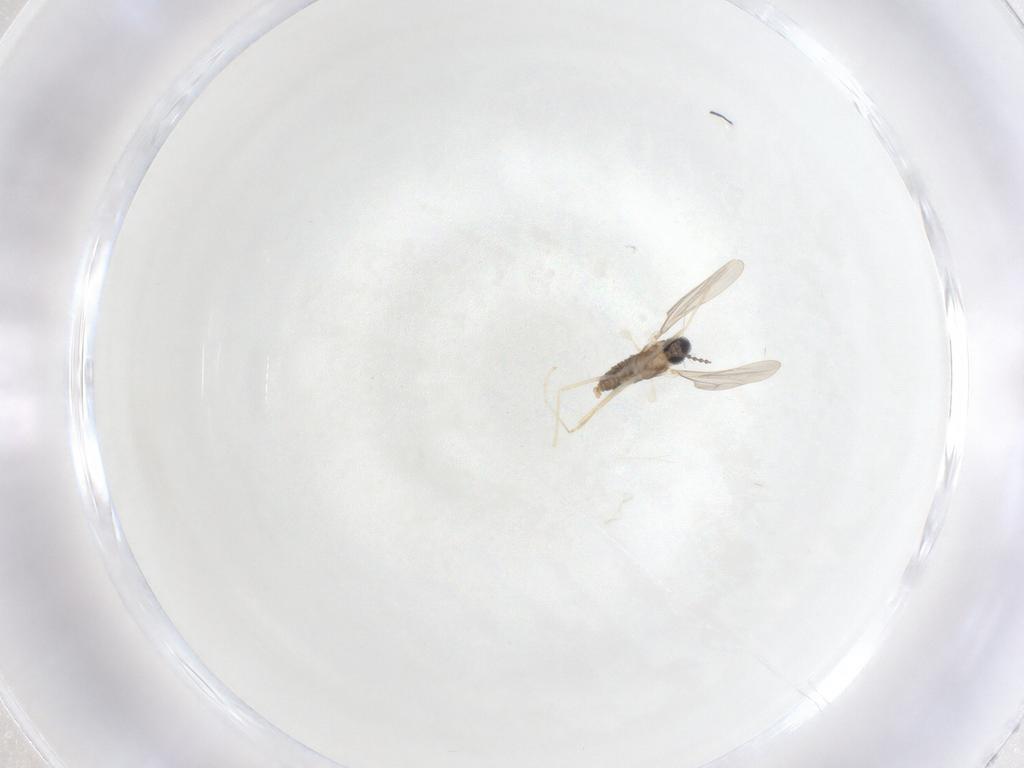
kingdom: Animalia
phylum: Arthropoda
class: Insecta
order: Diptera
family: Cecidomyiidae
